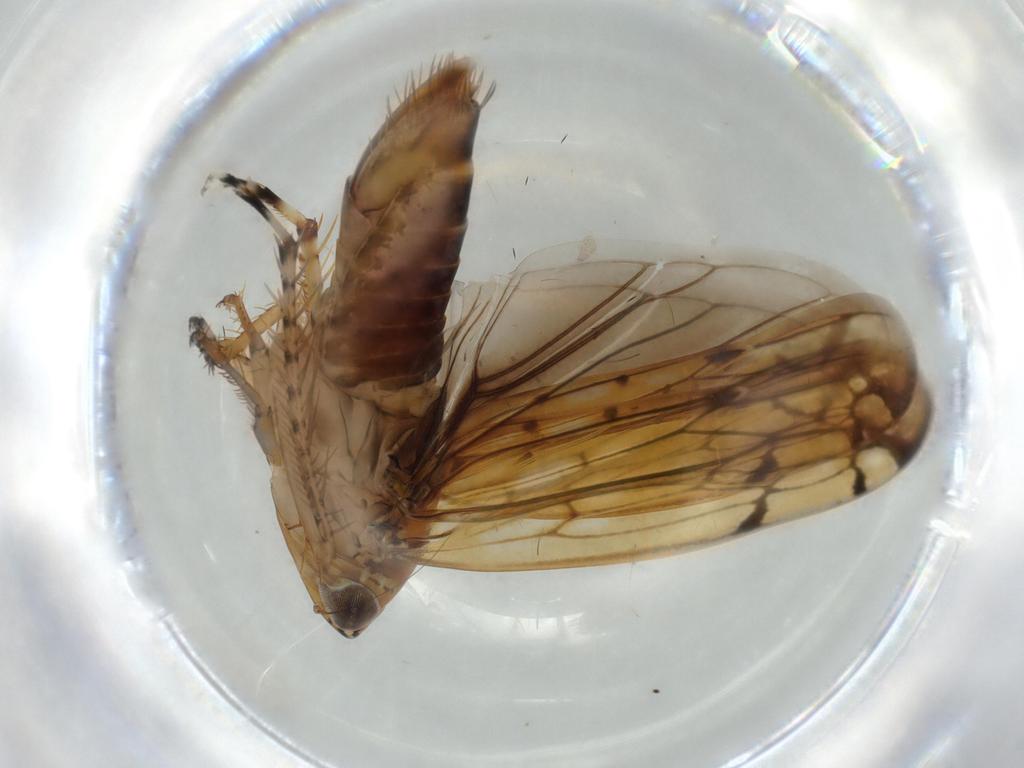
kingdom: Animalia
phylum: Arthropoda
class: Insecta
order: Hemiptera
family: Cicadellidae
